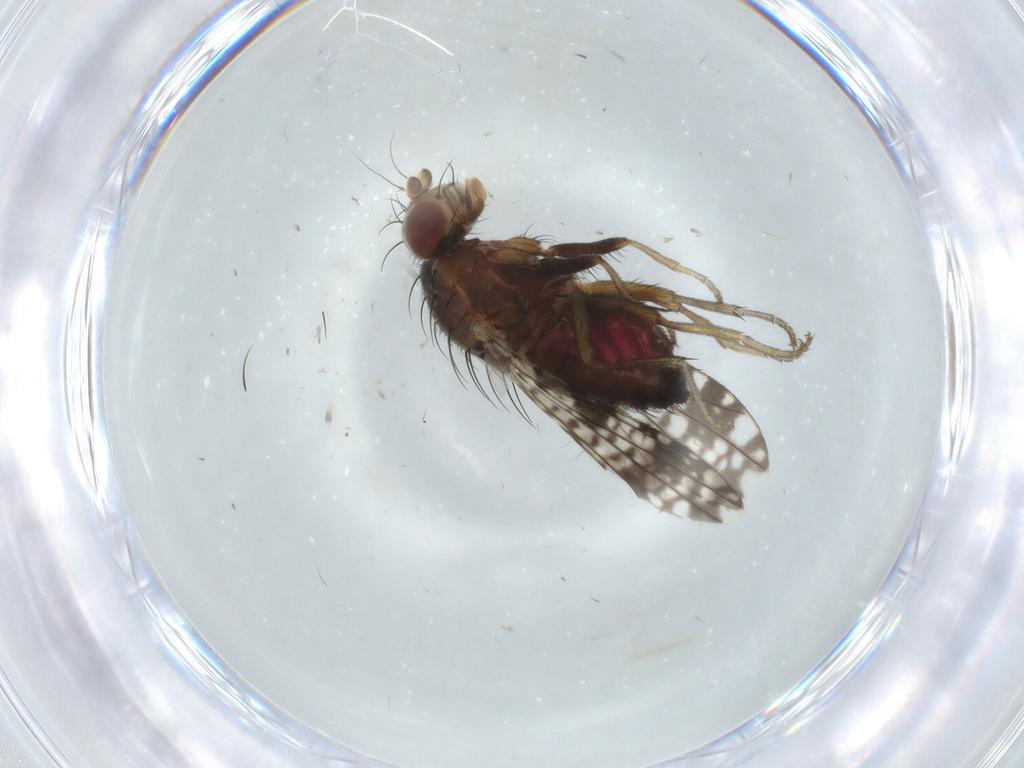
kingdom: Animalia
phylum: Arthropoda
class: Insecta
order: Diptera
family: Tephritidae
